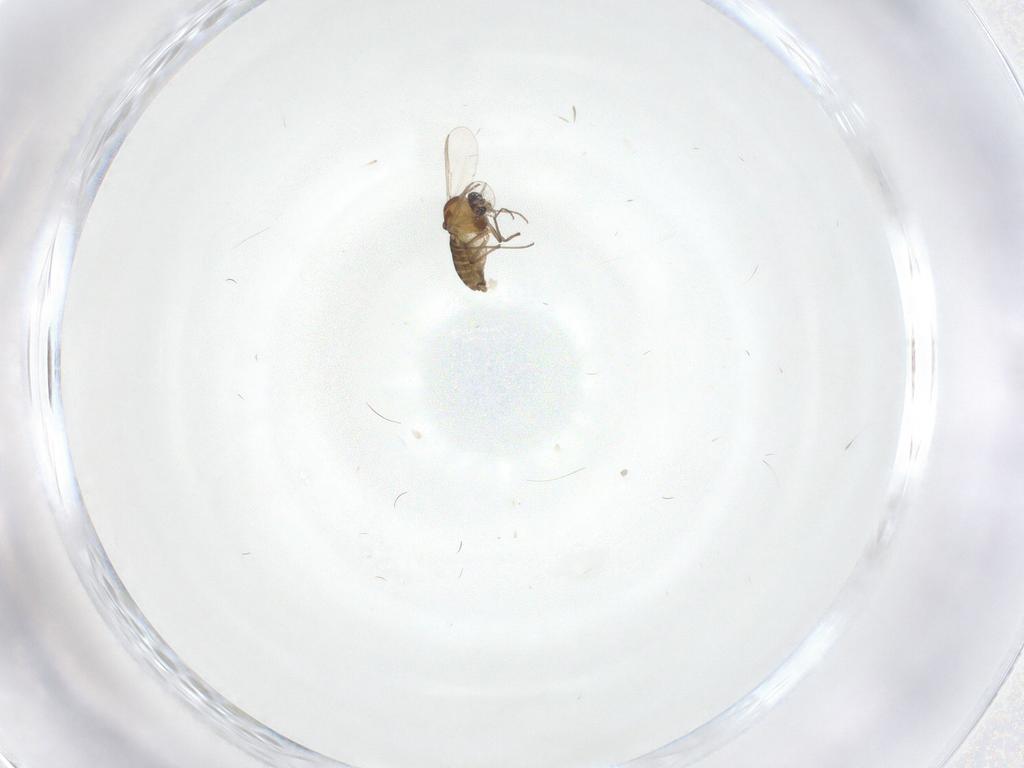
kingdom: Animalia
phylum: Arthropoda
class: Insecta
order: Diptera
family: Chironomidae
